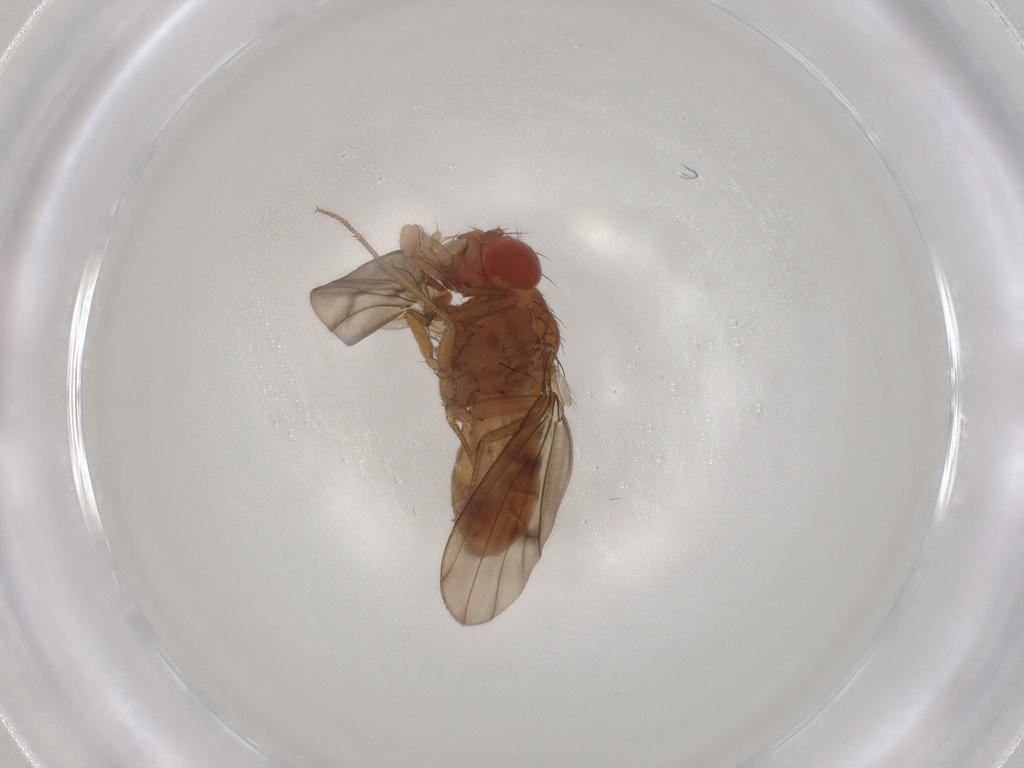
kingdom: Animalia
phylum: Arthropoda
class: Insecta
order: Diptera
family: Drosophilidae
